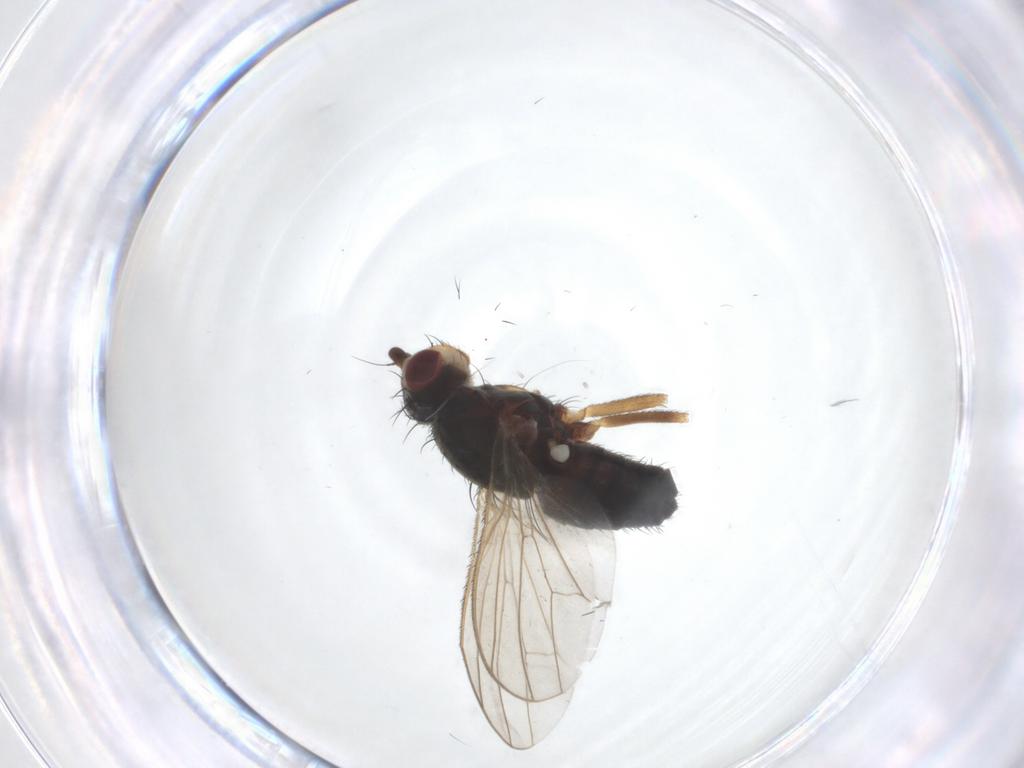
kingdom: Animalia
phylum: Arthropoda
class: Insecta
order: Diptera
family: Heleomyzidae
